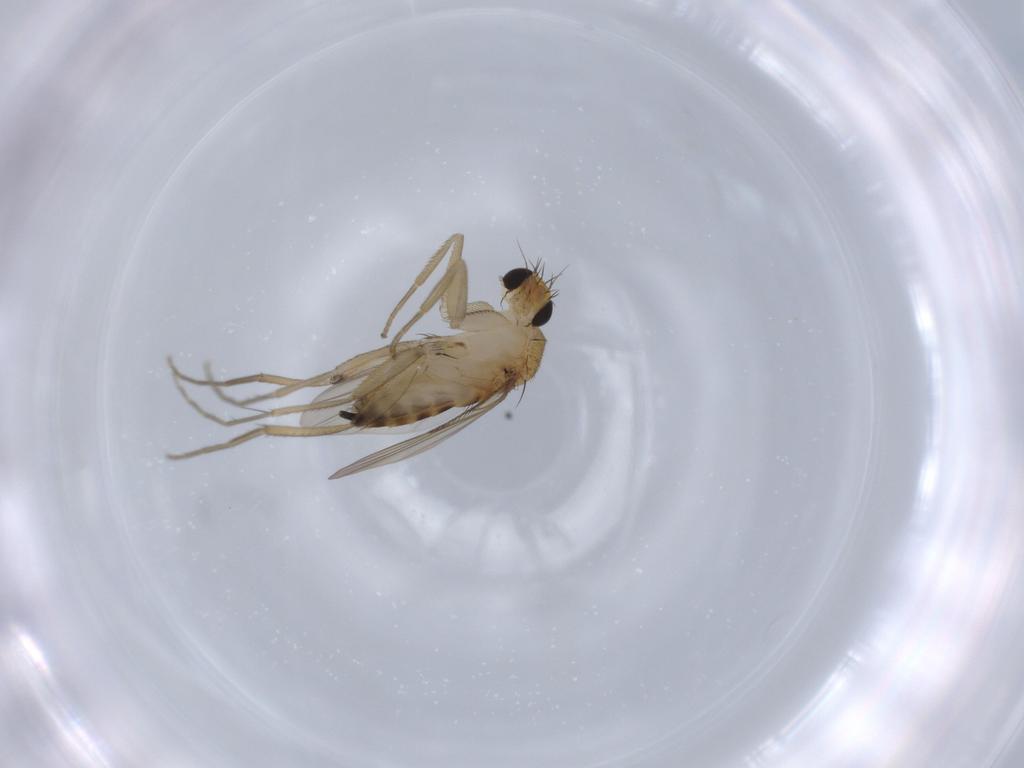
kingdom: Animalia
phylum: Arthropoda
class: Insecta
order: Diptera
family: Phoridae
